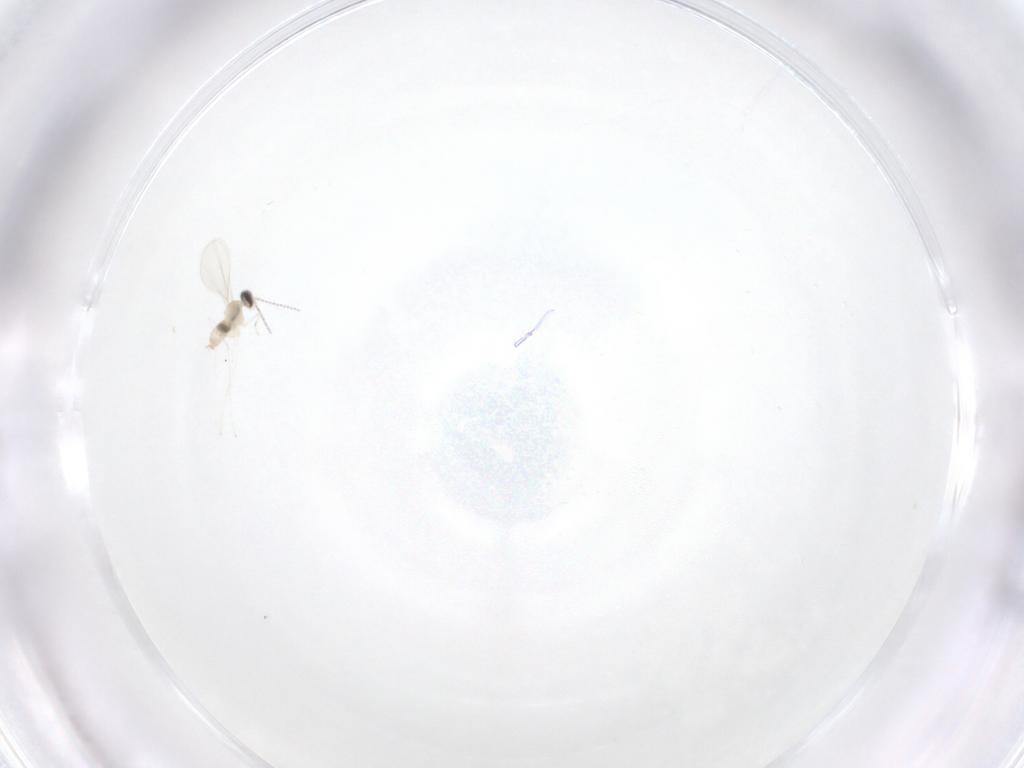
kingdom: Animalia
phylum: Arthropoda
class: Insecta
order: Diptera
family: Cecidomyiidae
